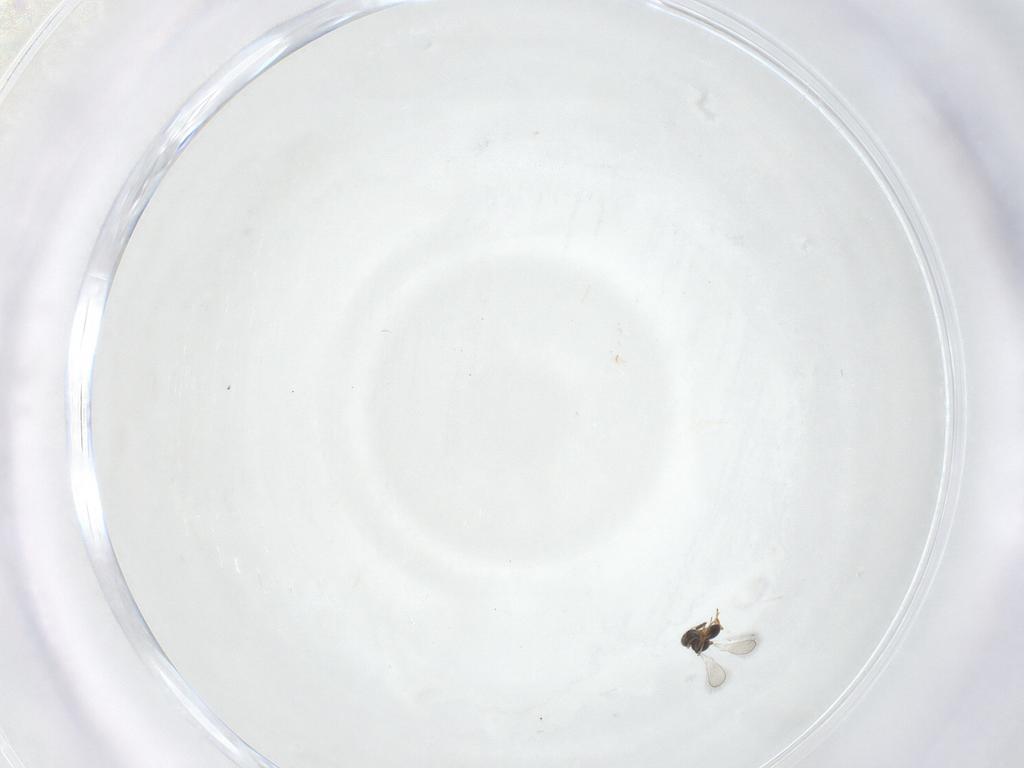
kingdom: Animalia
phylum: Arthropoda
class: Insecta
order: Hymenoptera
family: Platygastridae
